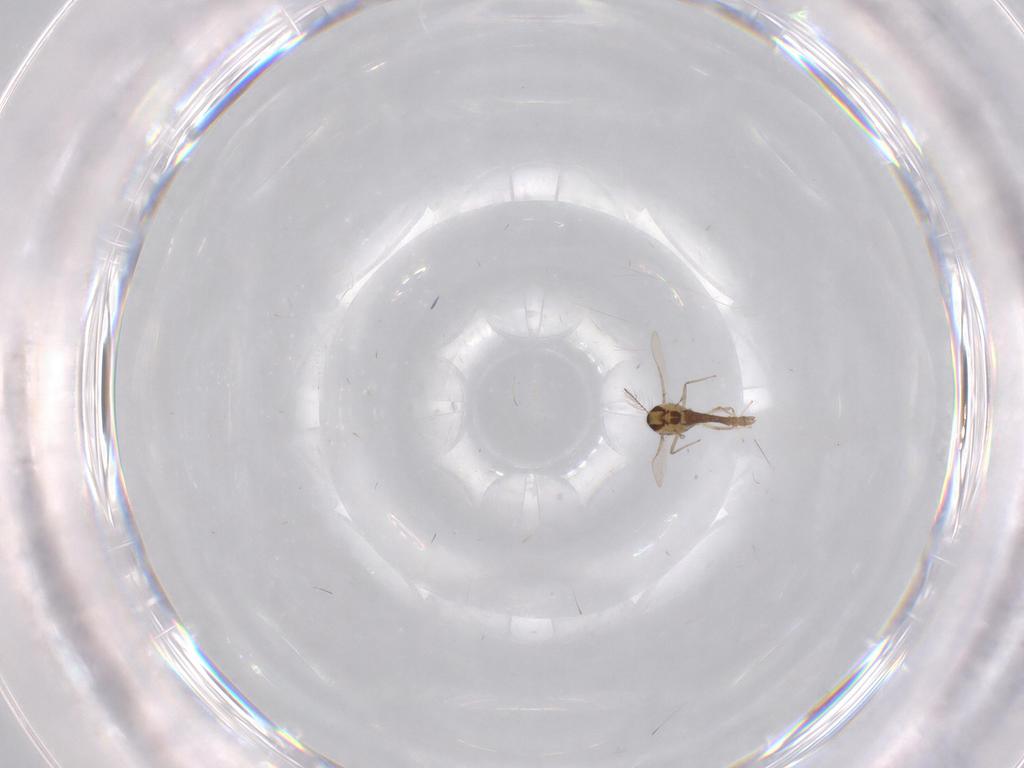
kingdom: Animalia
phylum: Arthropoda
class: Insecta
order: Diptera
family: Chironomidae
